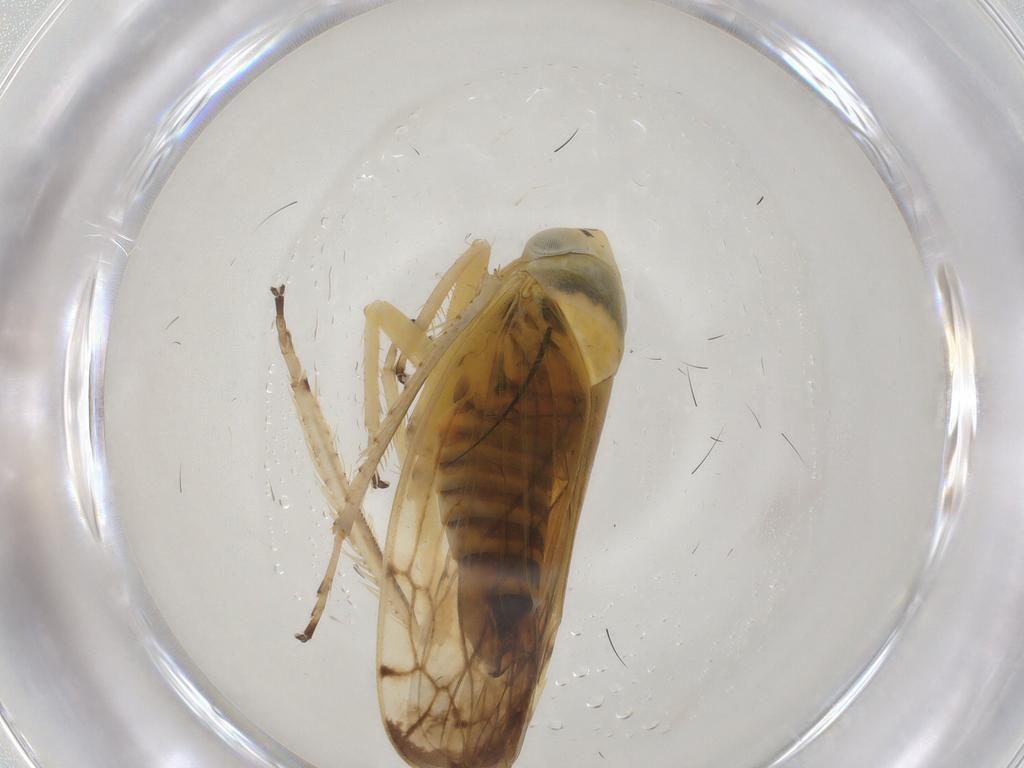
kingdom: Animalia
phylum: Arthropoda
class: Insecta
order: Hemiptera
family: Cicadellidae
